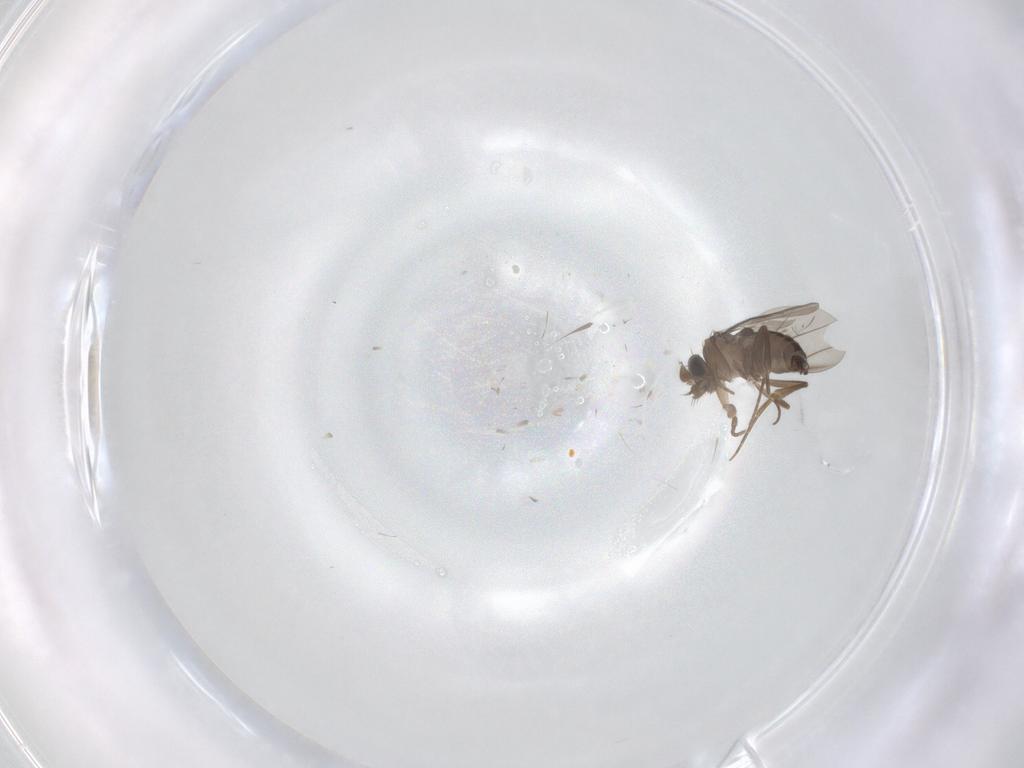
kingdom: Animalia
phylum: Arthropoda
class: Insecta
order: Diptera
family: Phoridae
